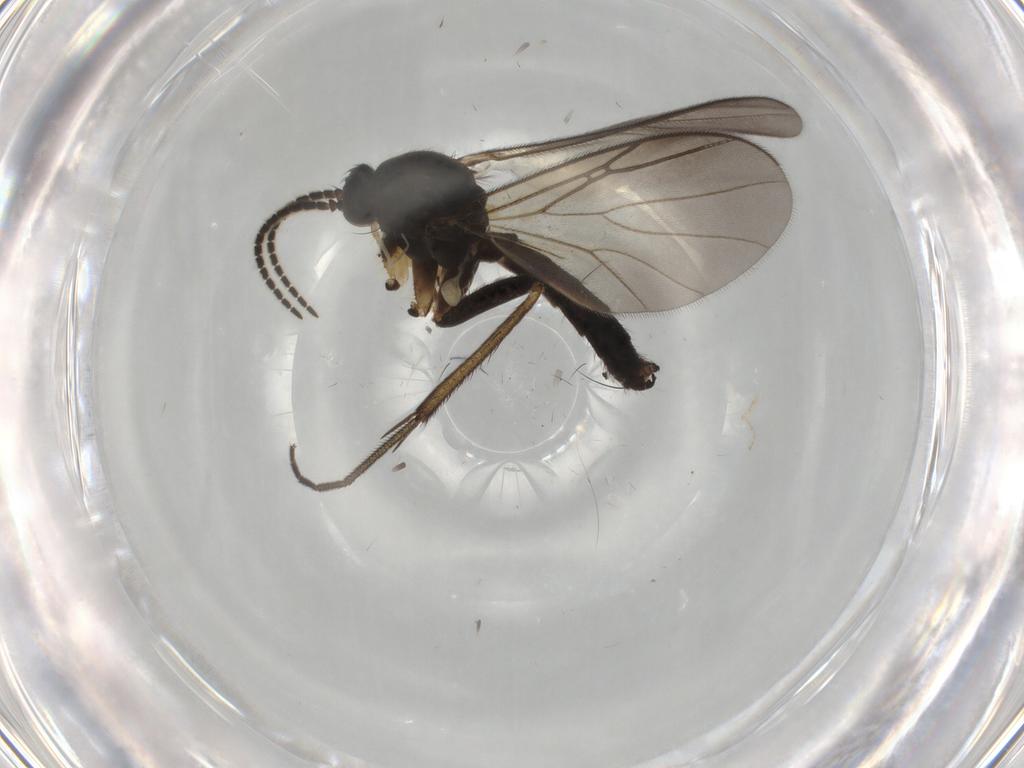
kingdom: Animalia
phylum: Arthropoda
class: Insecta
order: Diptera
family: Mycetophilidae
